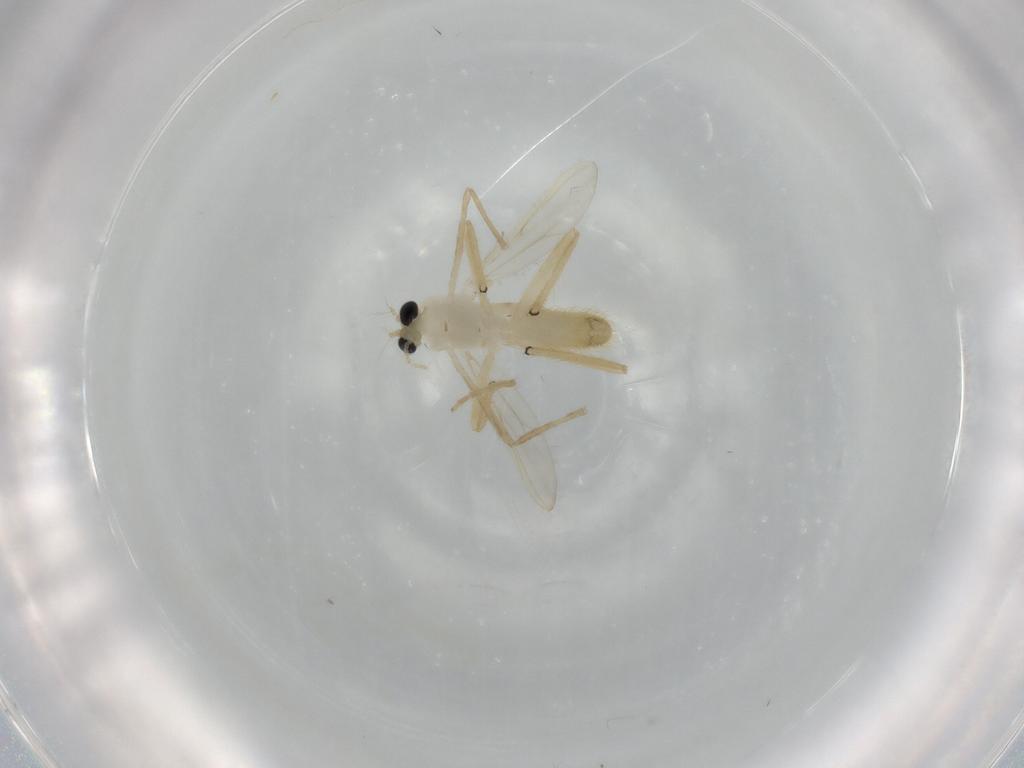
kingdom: Animalia
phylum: Arthropoda
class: Insecta
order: Diptera
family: Chironomidae
